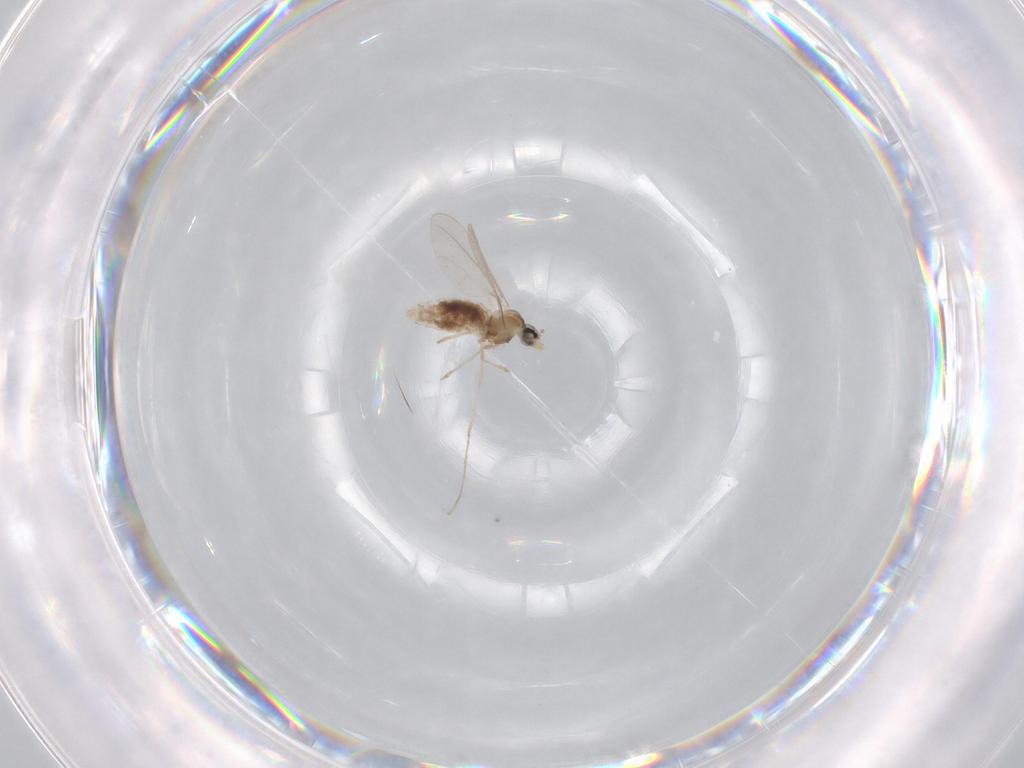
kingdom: Animalia
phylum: Arthropoda
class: Insecta
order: Diptera
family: Chironomidae
